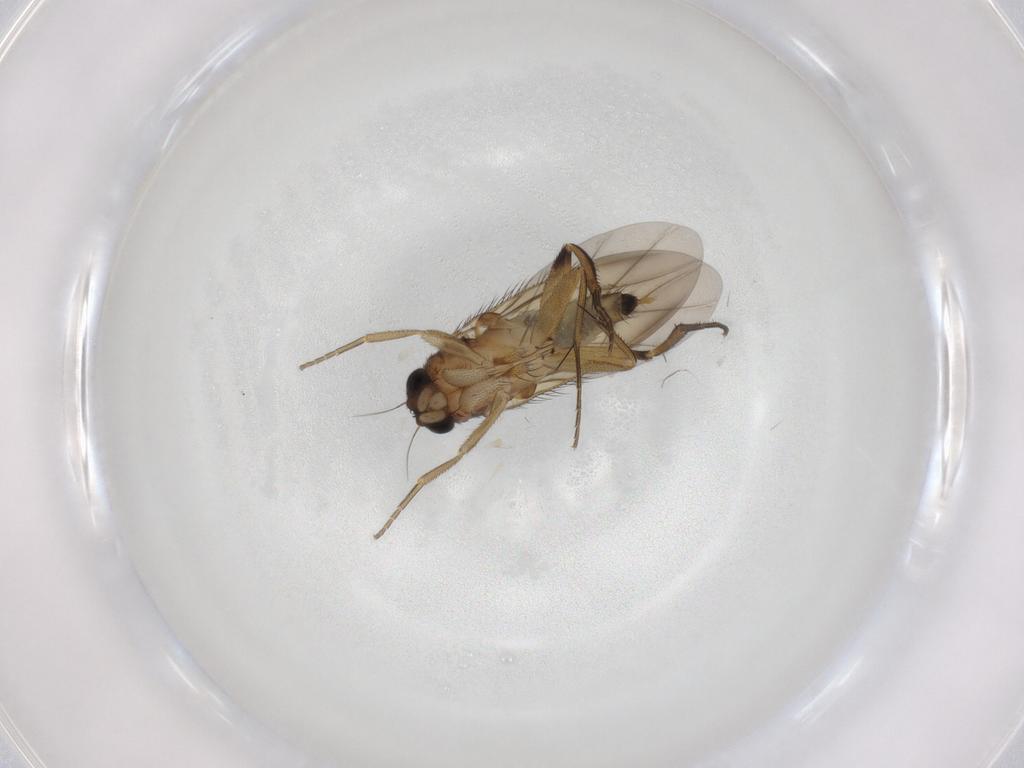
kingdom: Animalia
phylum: Arthropoda
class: Insecta
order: Diptera
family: Phoridae
